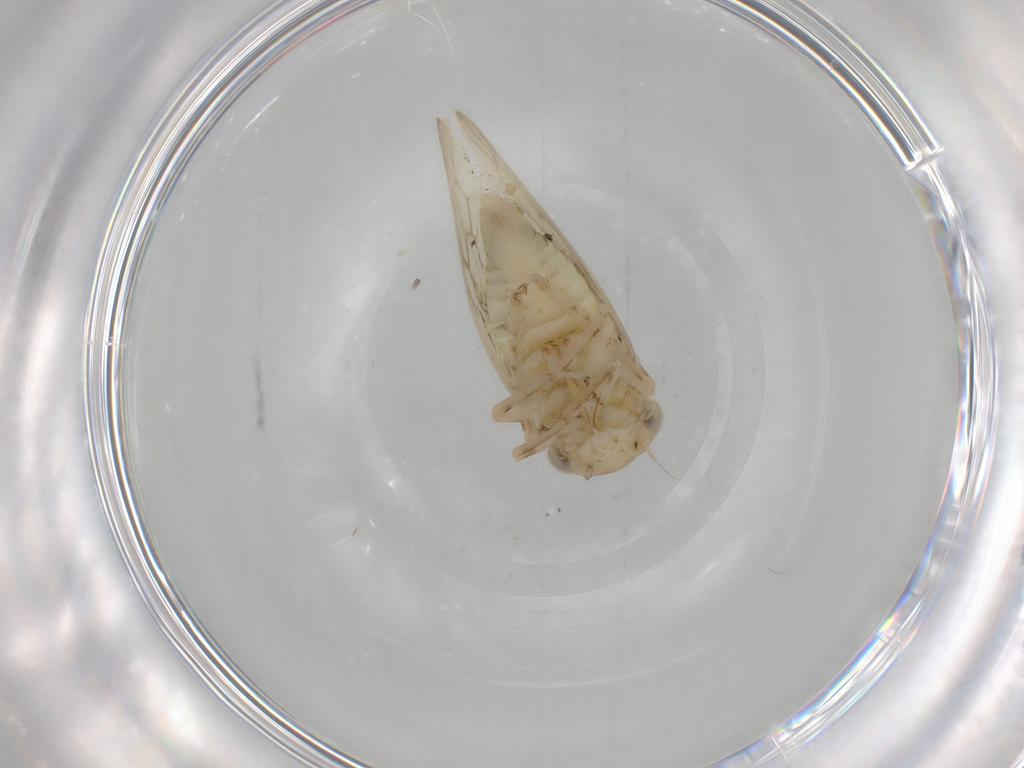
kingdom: Animalia
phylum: Arthropoda
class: Insecta
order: Hemiptera
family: Cicadellidae
